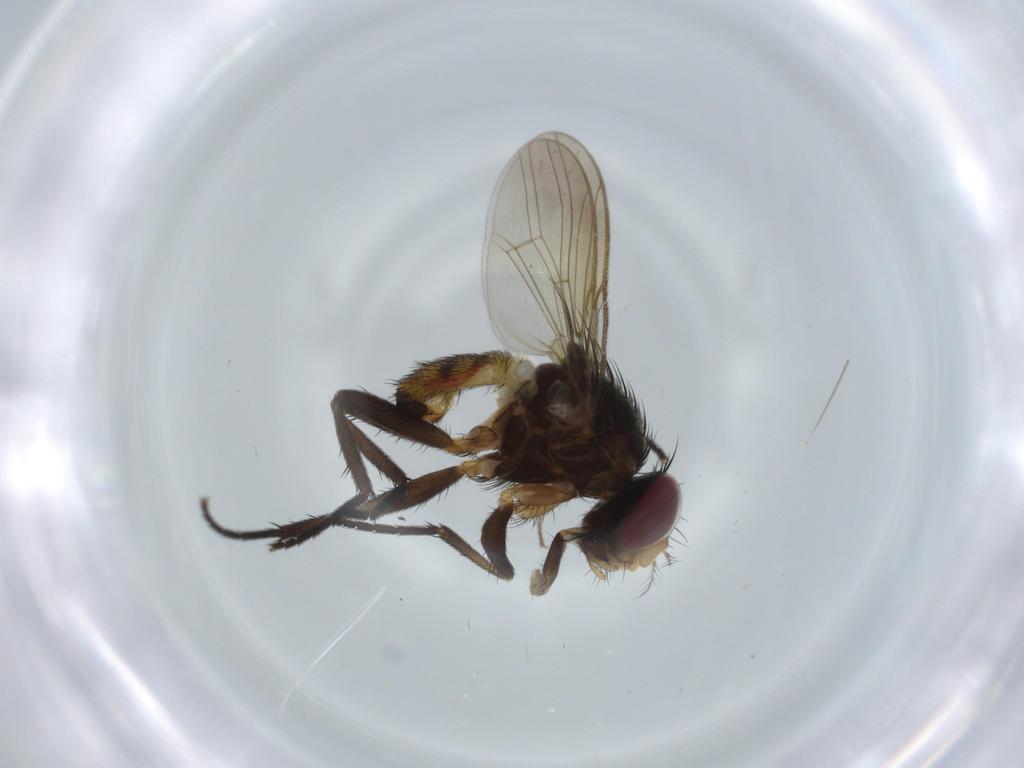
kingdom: Animalia
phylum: Arthropoda
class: Insecta
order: Diptera
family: Anthomyiidae
